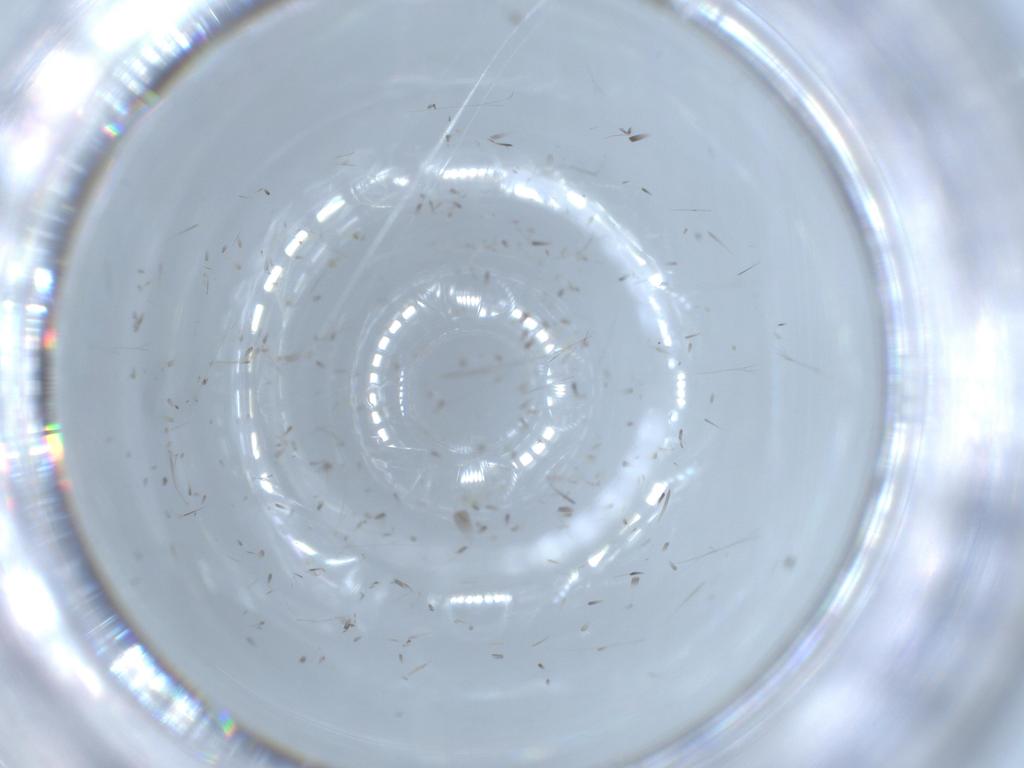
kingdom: Animalia
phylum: Arthropoda
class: Insecta
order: Lepidoptera
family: Oecophoridae
